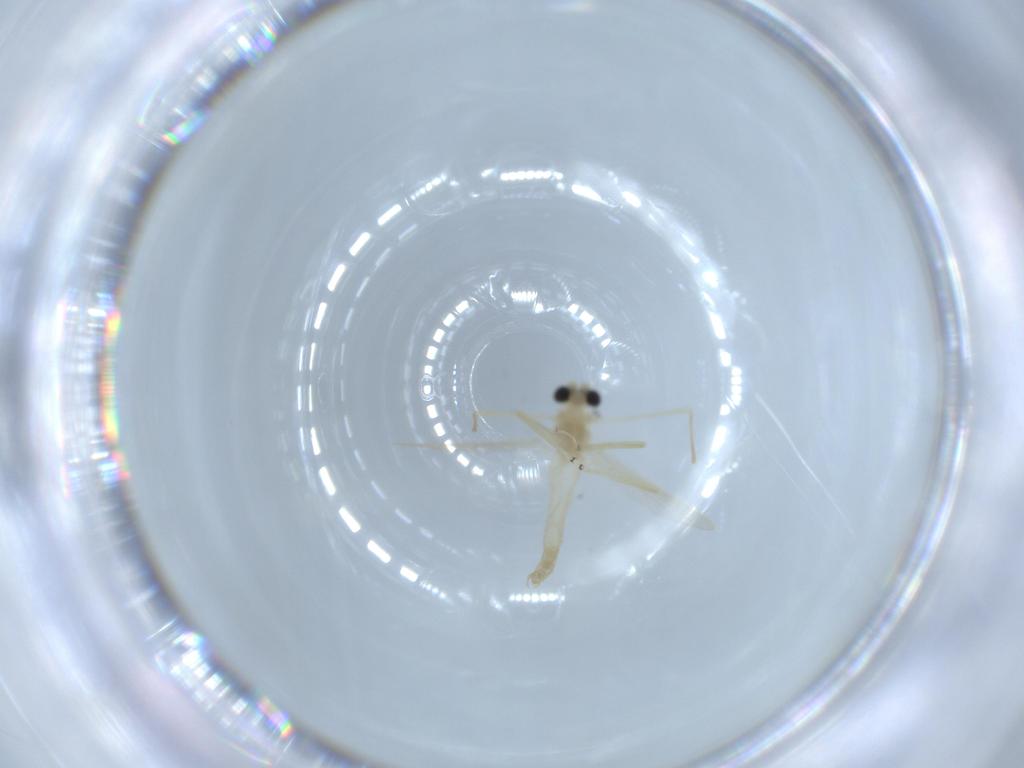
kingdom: Animalia
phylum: Arthropoda
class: Insecta
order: Diptera
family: Chironomidae
